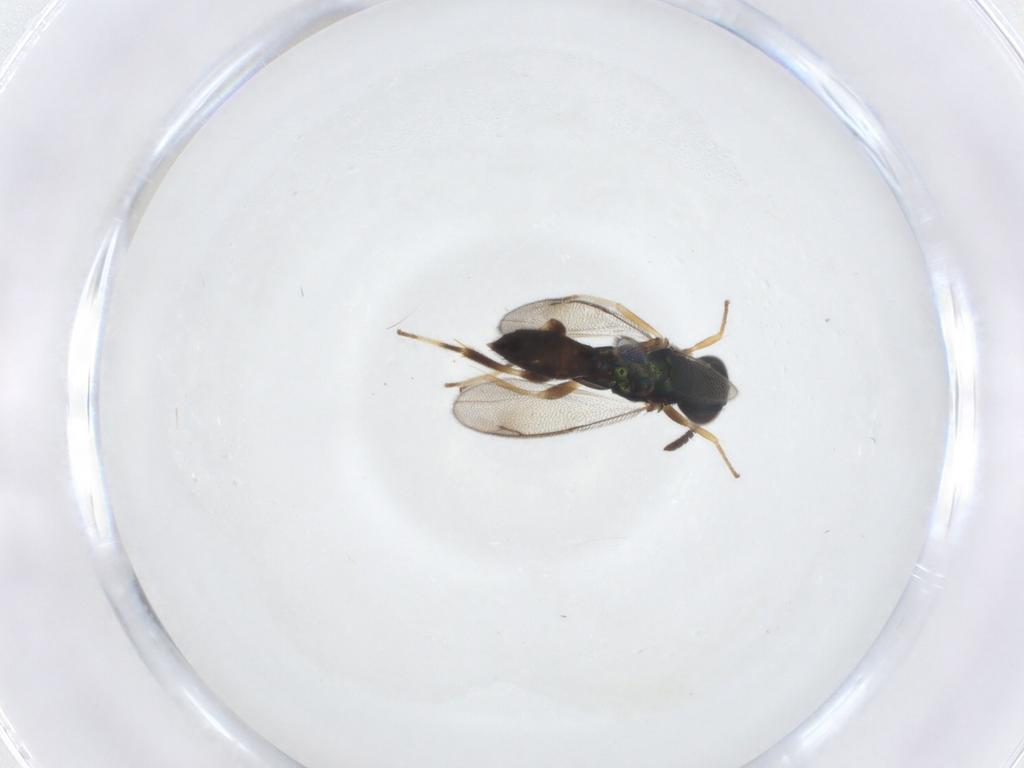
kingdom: Animalia
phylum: Arthropoda
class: Insecta
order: Hymenoptera
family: Cleonyminae
